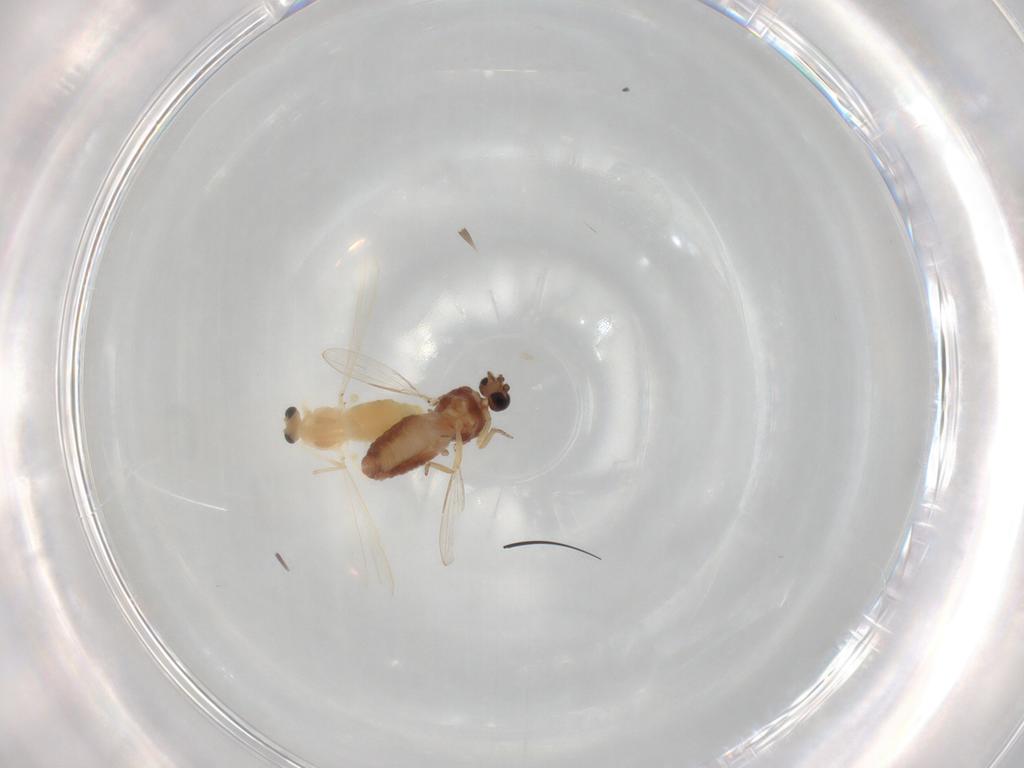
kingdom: Animalia
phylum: Arthropoda
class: Insecta
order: Diptera
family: Chironomidae
